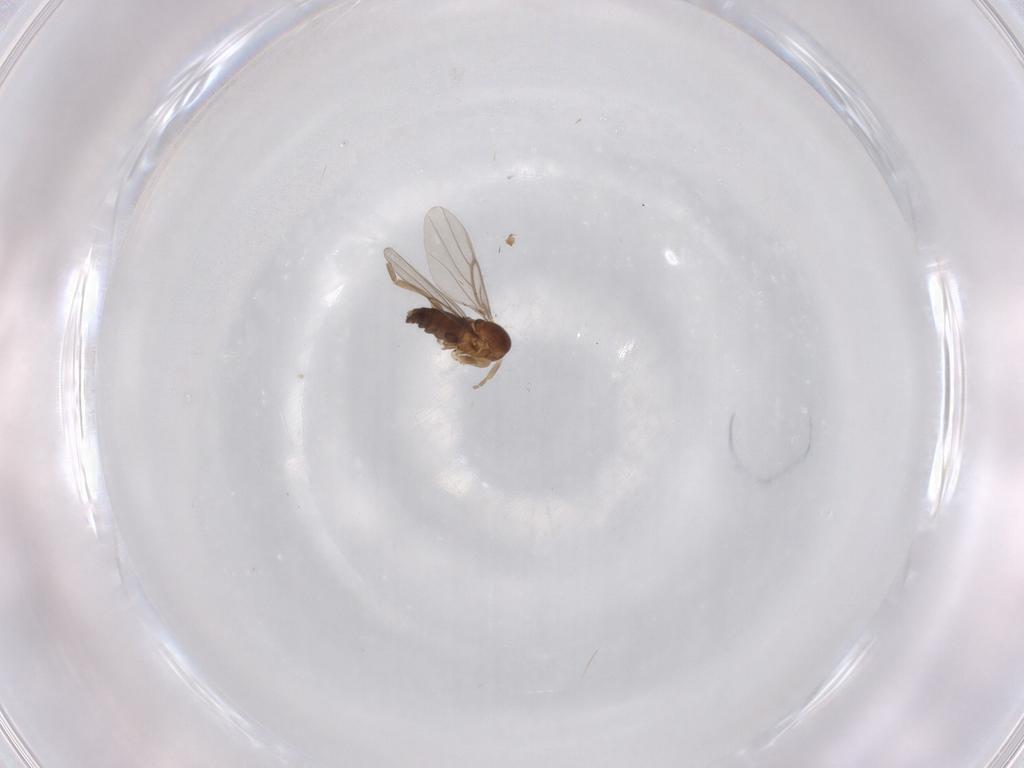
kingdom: Animalia
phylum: Arthropoda
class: Insecta
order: Diptera
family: Phoridae
